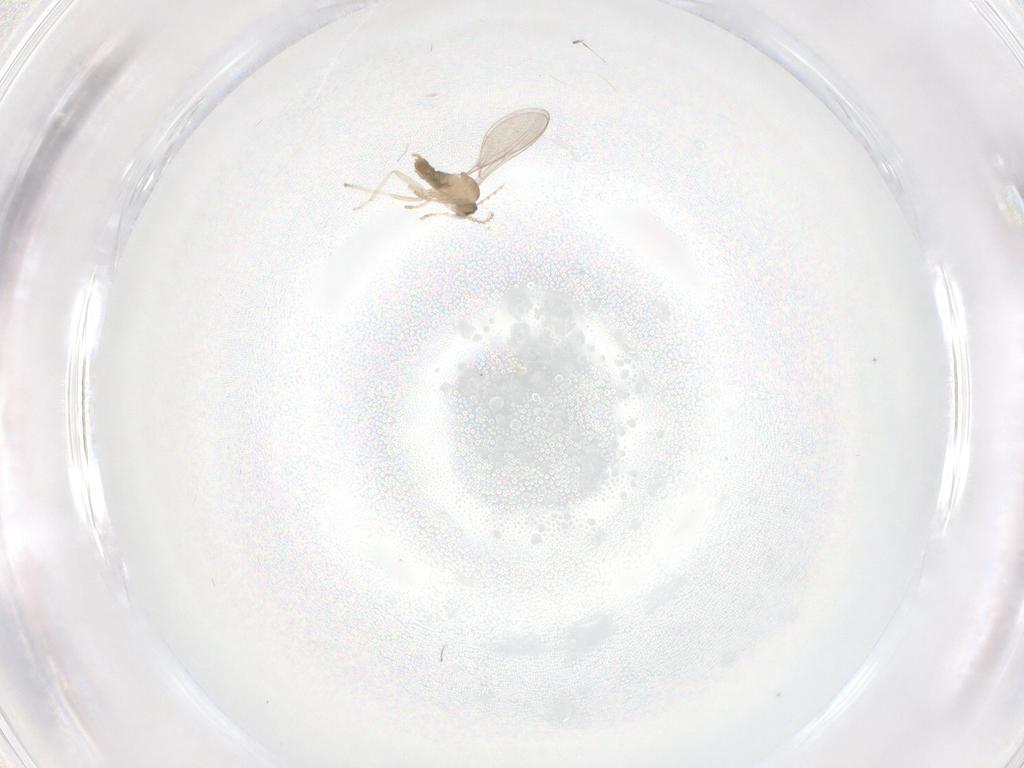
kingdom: Animalia
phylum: Arthropoda
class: Insecta
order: Diptera
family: Cecidomyiidae
